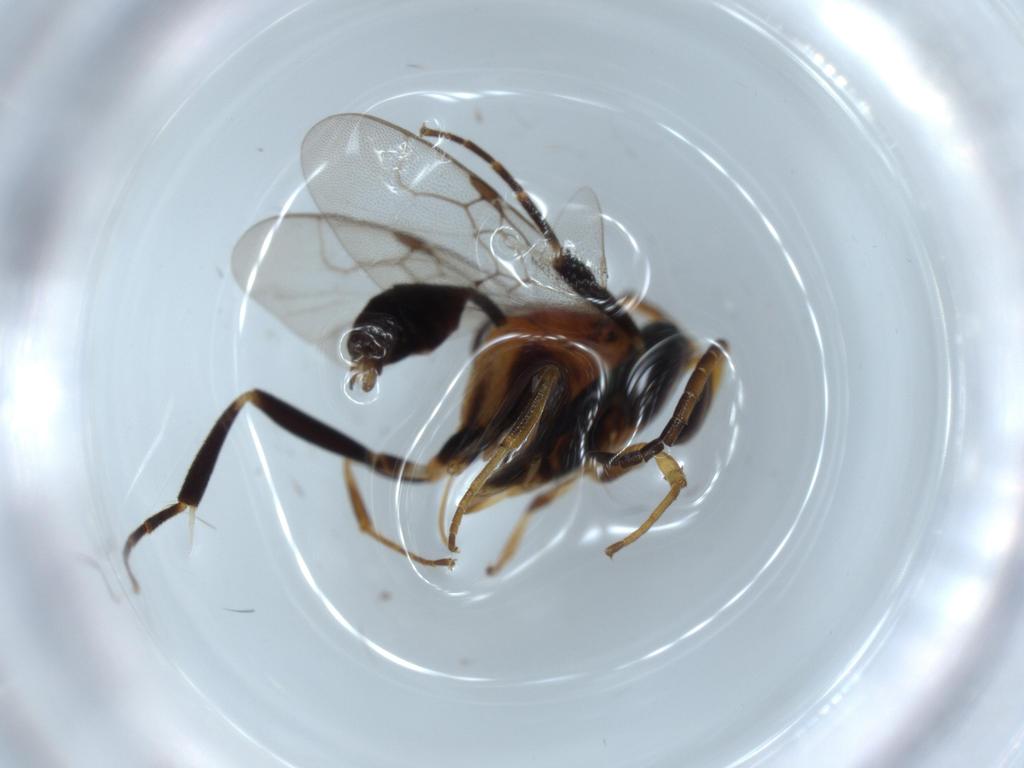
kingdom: Animalia
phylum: Arthropoda
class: Insecta
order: Hymenoptera
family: Evaniidae
